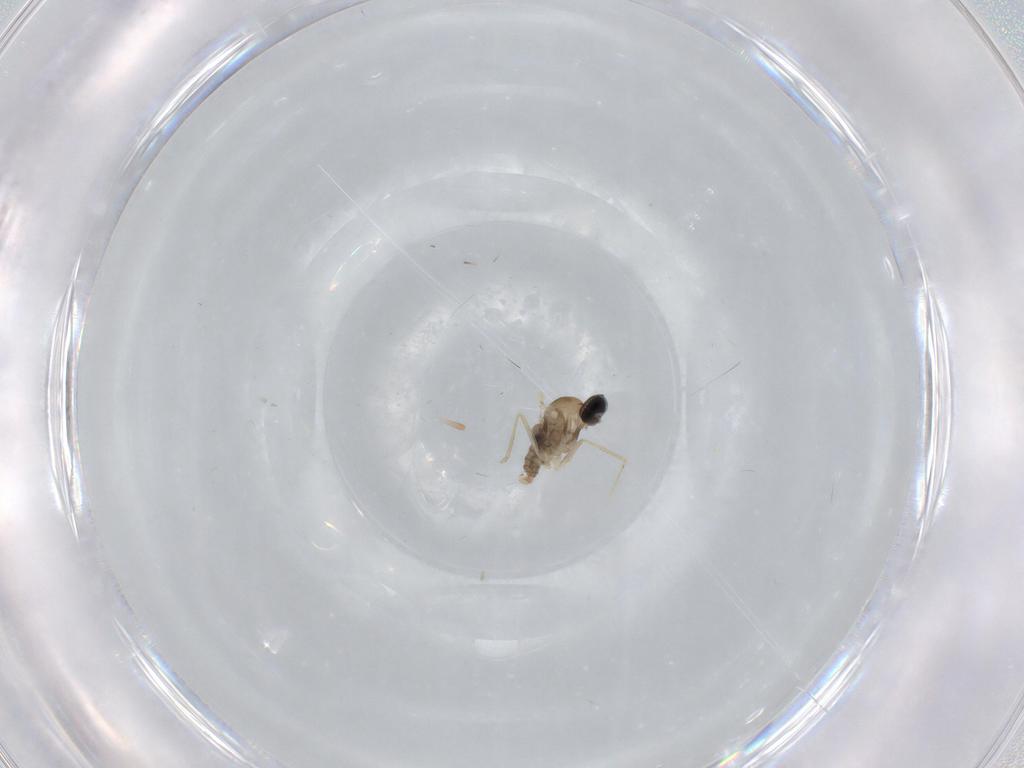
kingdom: Animalia
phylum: Arthropoda
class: Insecta
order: Diptera
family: Cecidomyiidae
